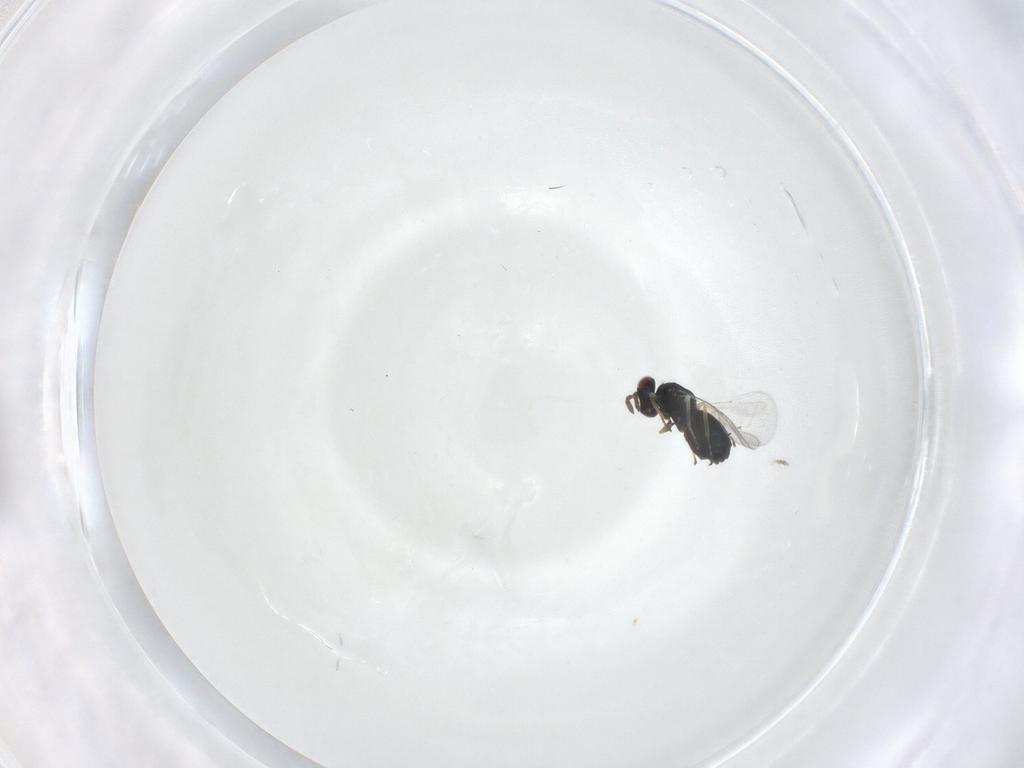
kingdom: Animalia
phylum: Arthropoda
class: Insecta
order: Hymenoptera
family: Eulophidae
